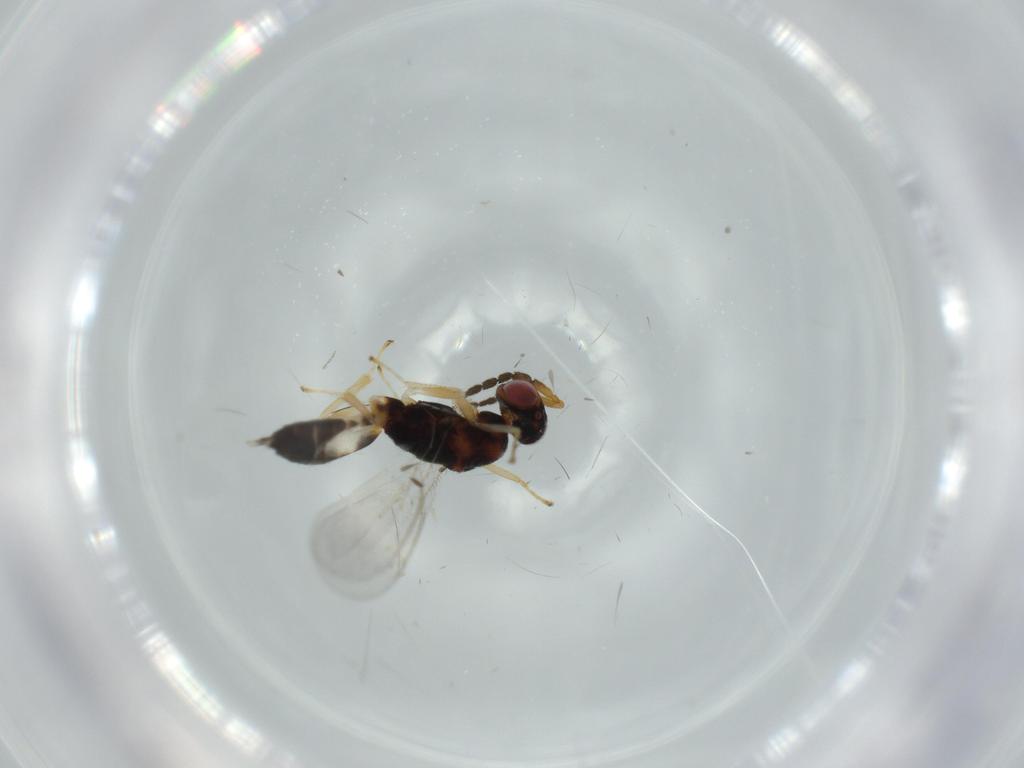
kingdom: Animalia
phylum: Arthropoda
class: Insecta
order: Hymenoptera
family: Eulophidae
